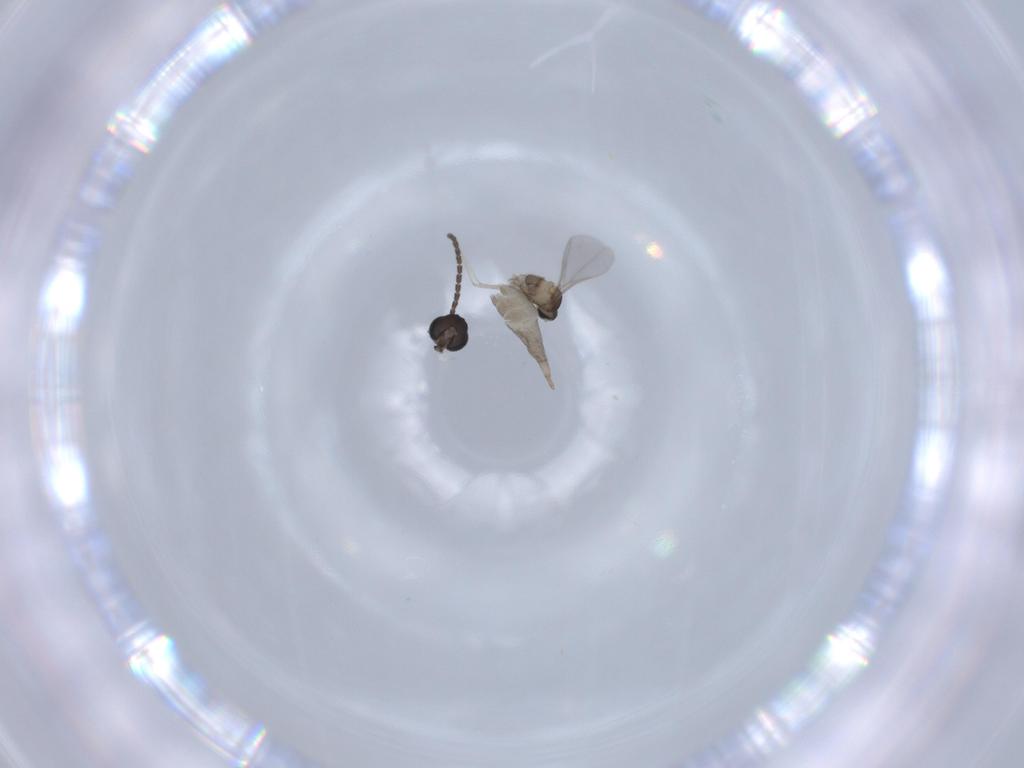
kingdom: Animalia
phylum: Arthropoda
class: Insecta
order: Diptera
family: Sciaridae
